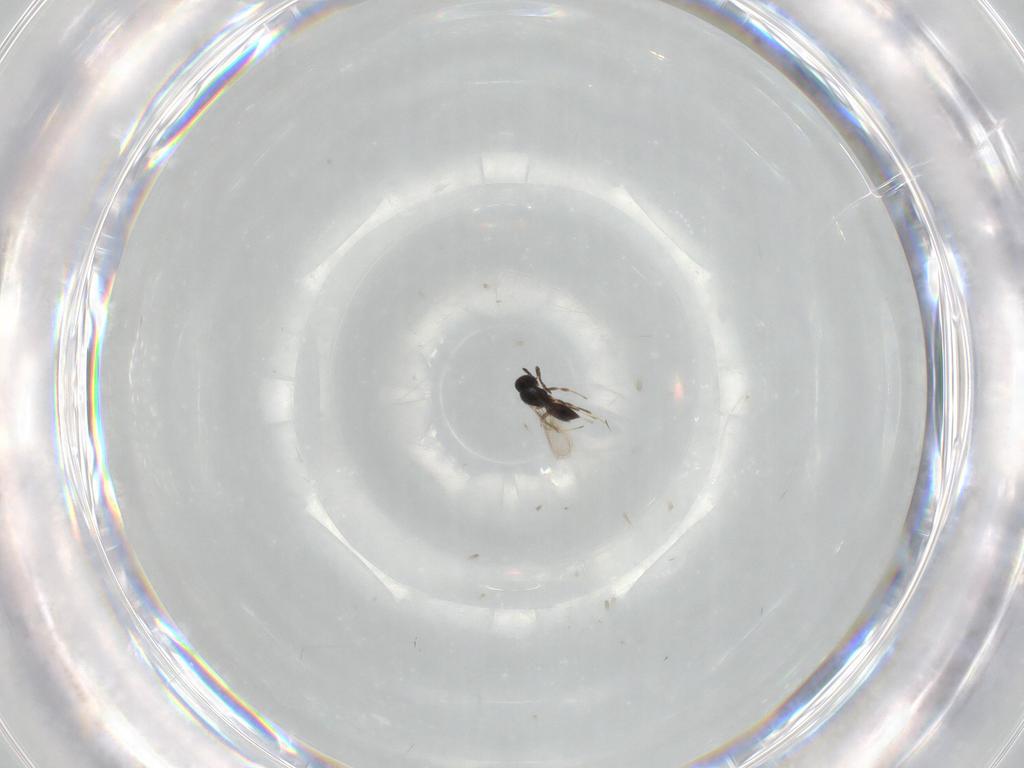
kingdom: Animalia
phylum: Arthropoda
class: Insecta
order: Hymenoptera
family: Scelionidae
